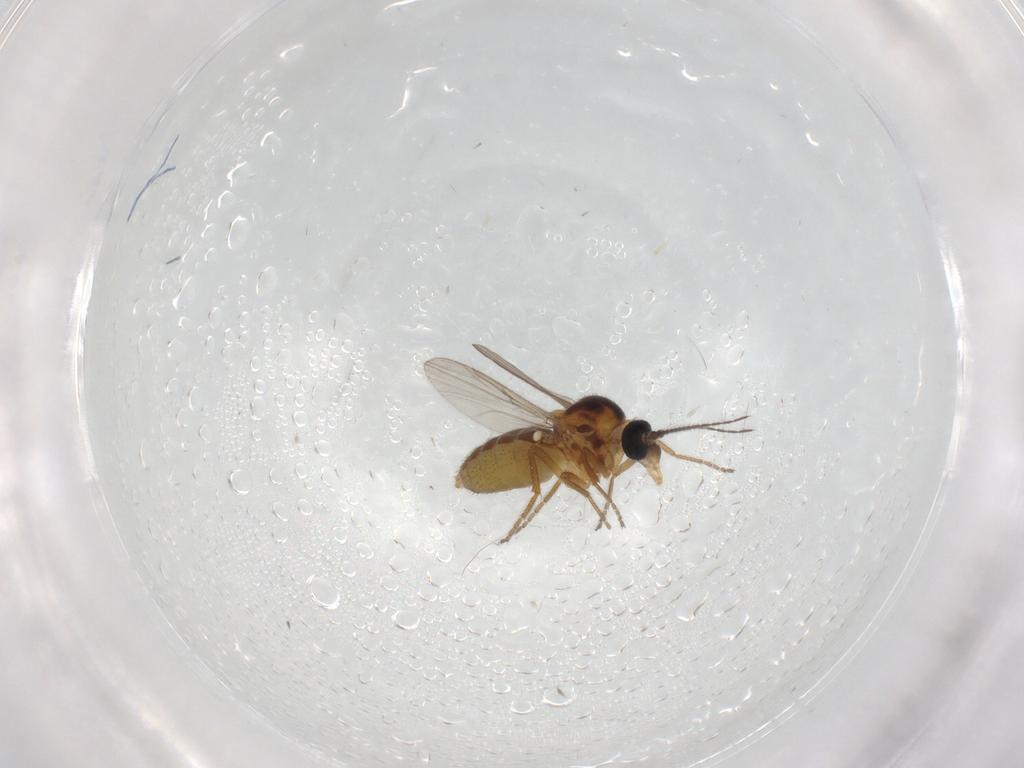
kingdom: Animalia
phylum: Arthropoda
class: Insecta
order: Diptera
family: Ceratopogonidae
